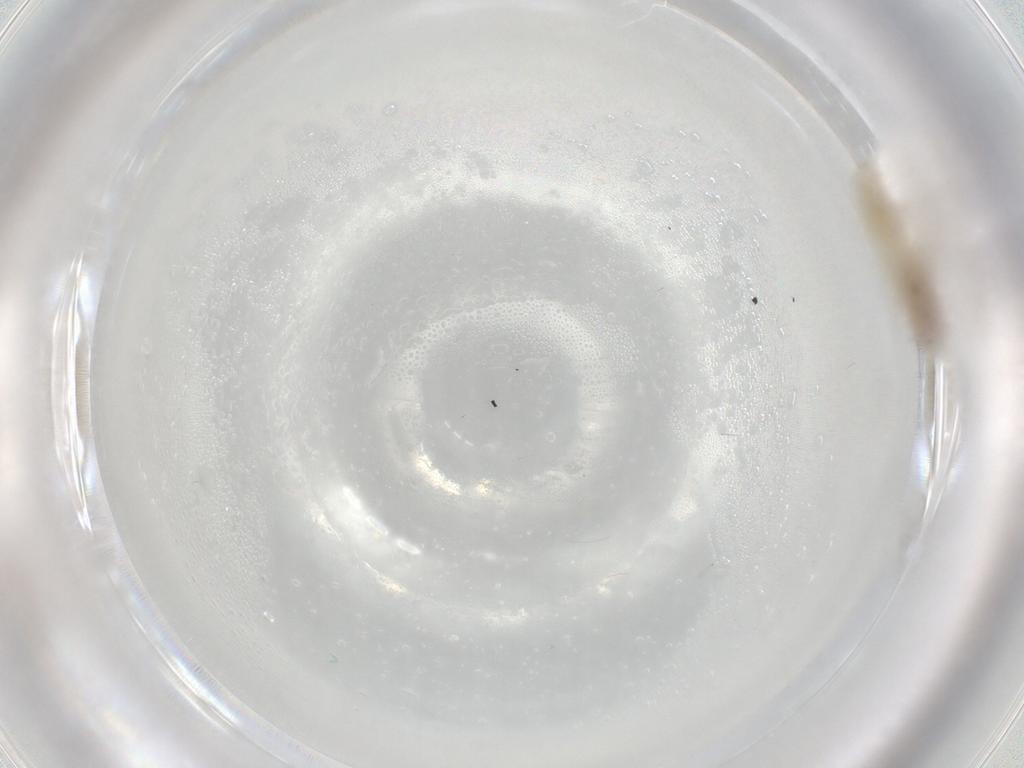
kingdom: Animalia
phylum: Arthropoda
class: Insecta
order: Diptera
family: Chironomidae
